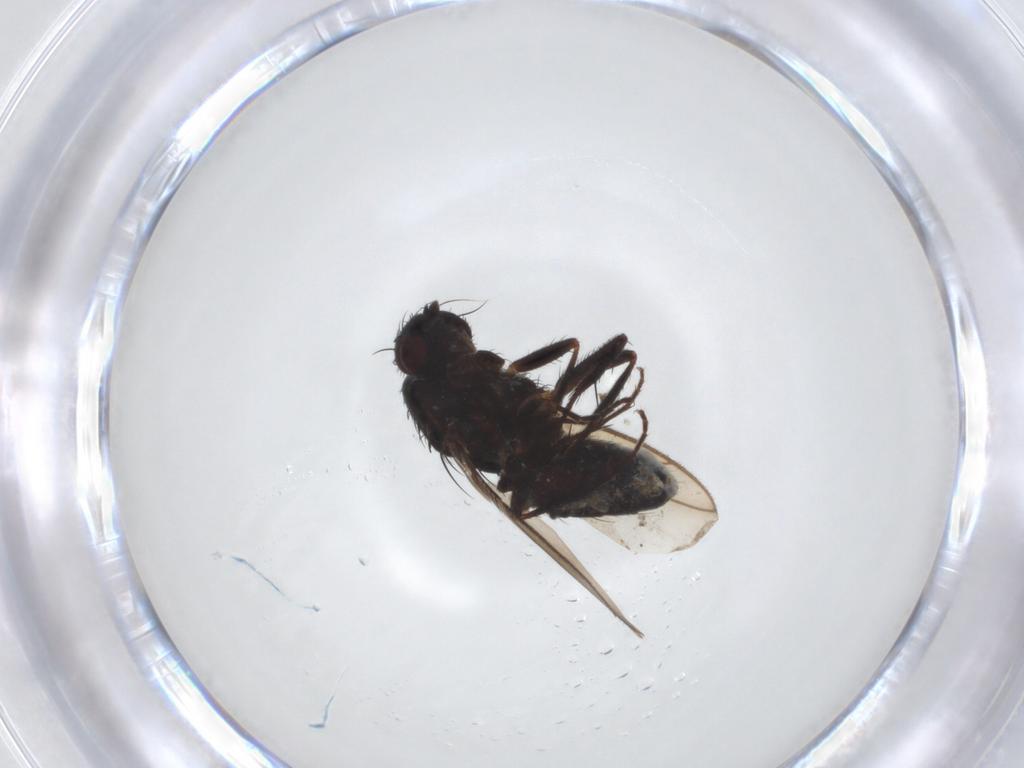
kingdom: Animalia
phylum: Arthropoda
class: Insecta
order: Diptera
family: Sphaeroceridae
